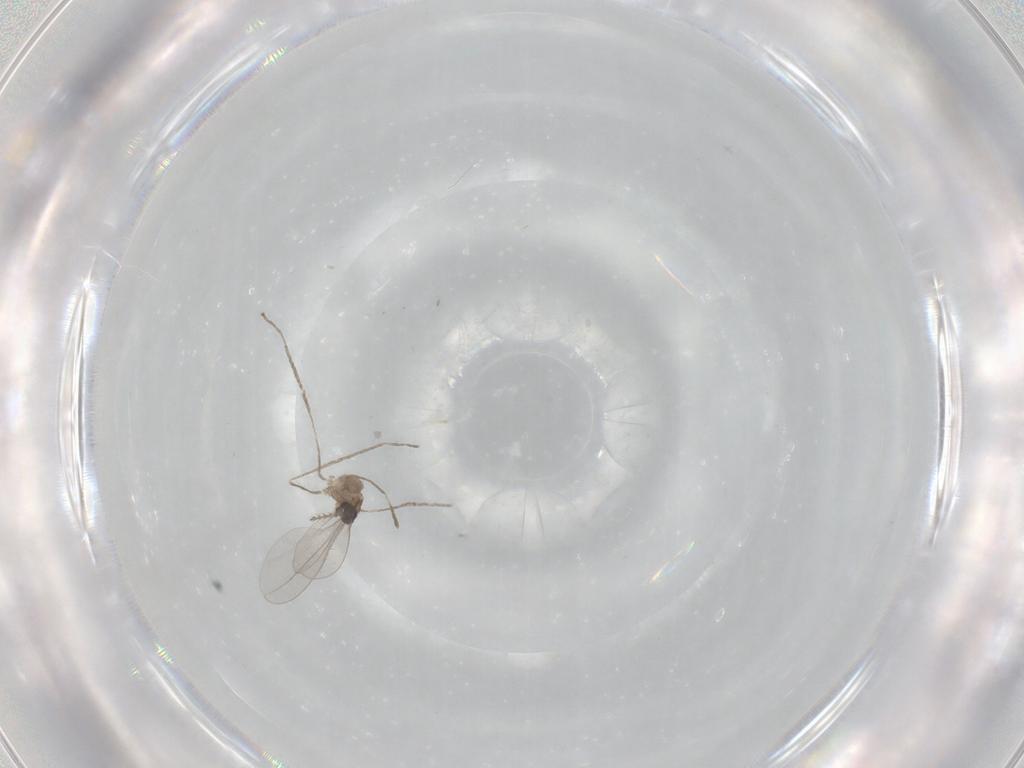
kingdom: Animalia
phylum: Arthropoda
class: Insecta
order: Diptera
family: Cecidomyiidae
